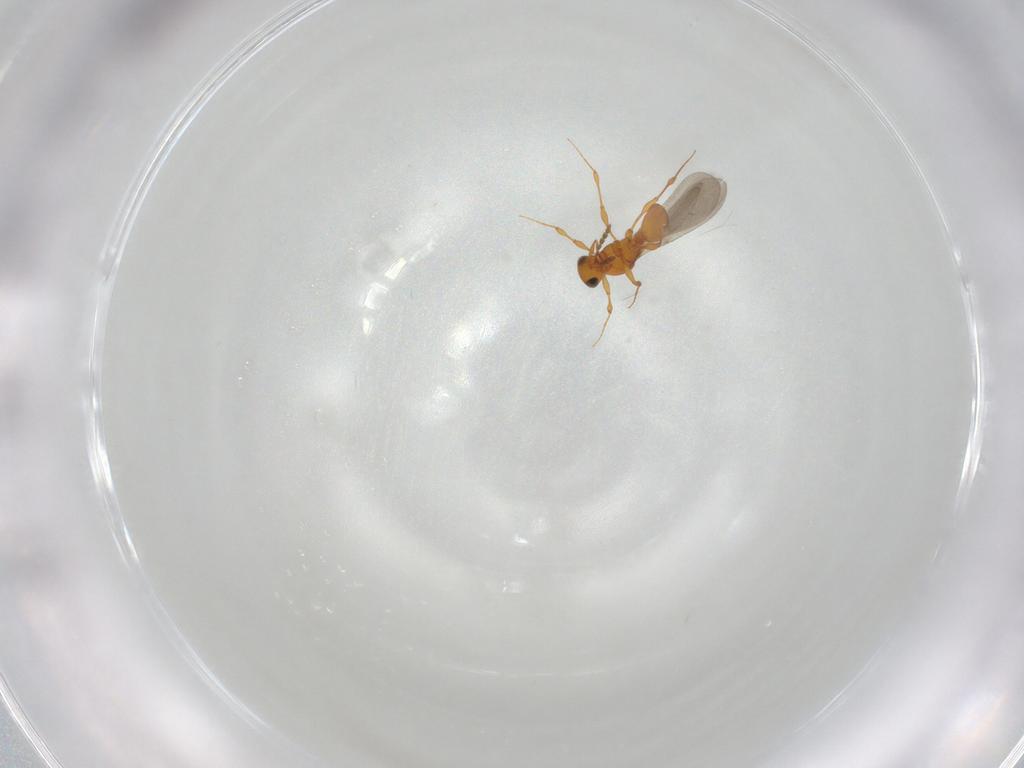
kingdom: Animalia
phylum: Arthropoda
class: Insecta
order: Hymenoptera
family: Platygastridae
